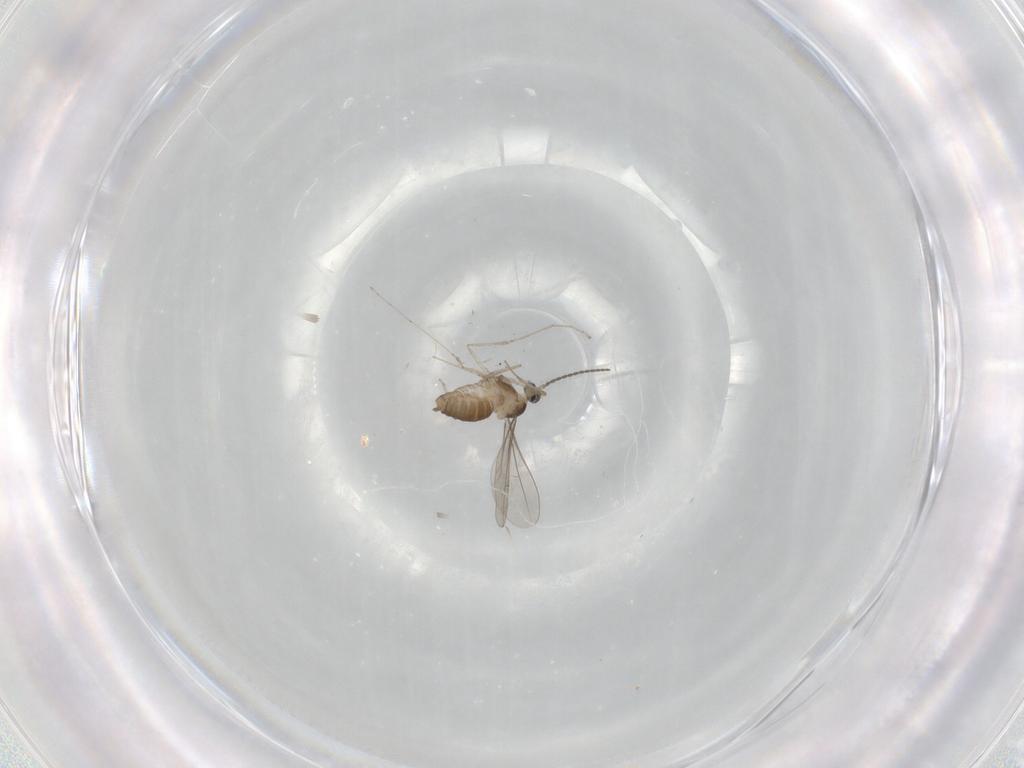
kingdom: Animalia
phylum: Arthropoda
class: Insecta
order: Diptera
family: Cecidomyiidae
